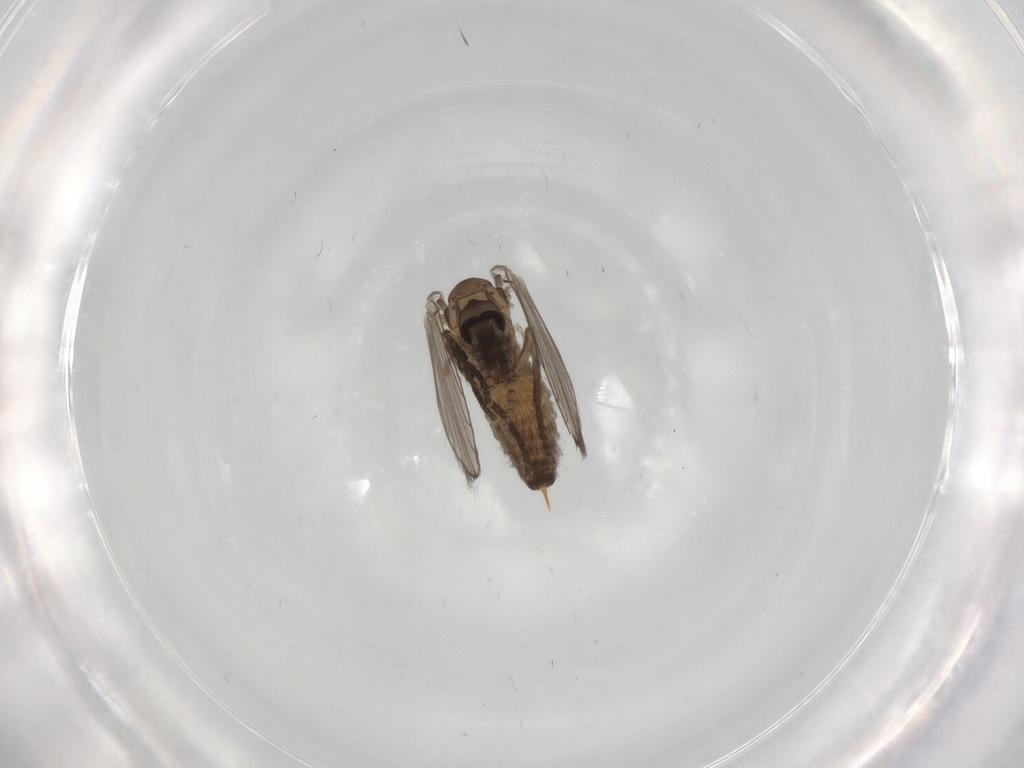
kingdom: Animalia
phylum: Arthropoda
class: Insecta
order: Diptera
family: Psychodidae
